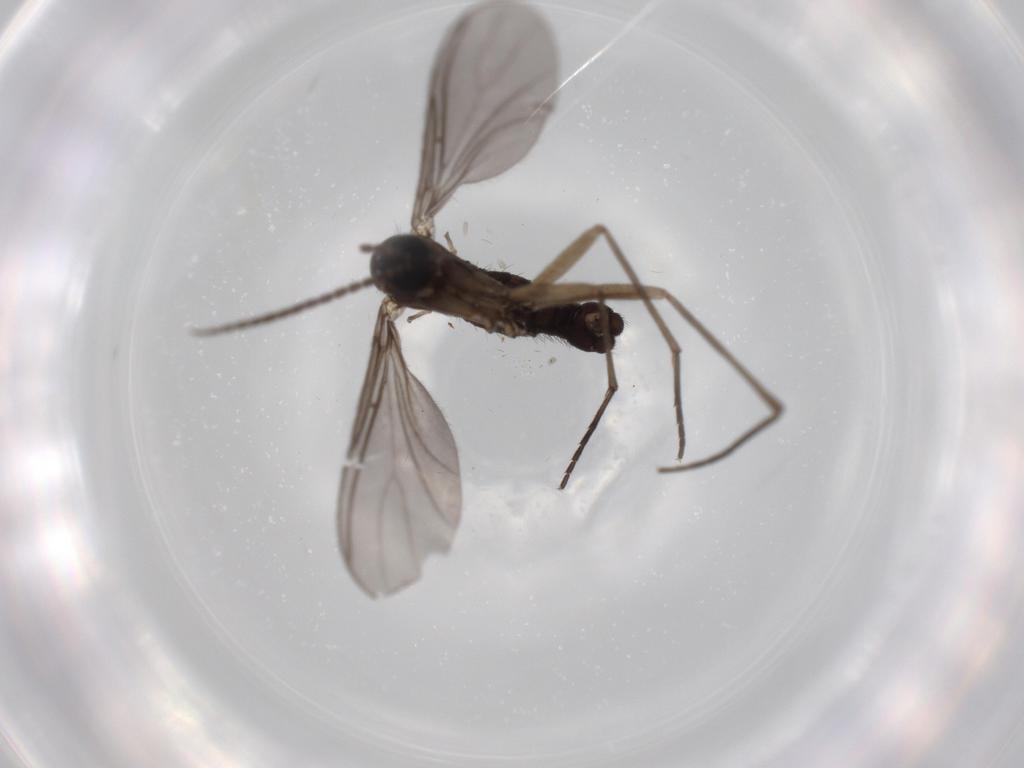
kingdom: Animalia
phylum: Arthropoda
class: Insecta
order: Diptera
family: Sciaridae
